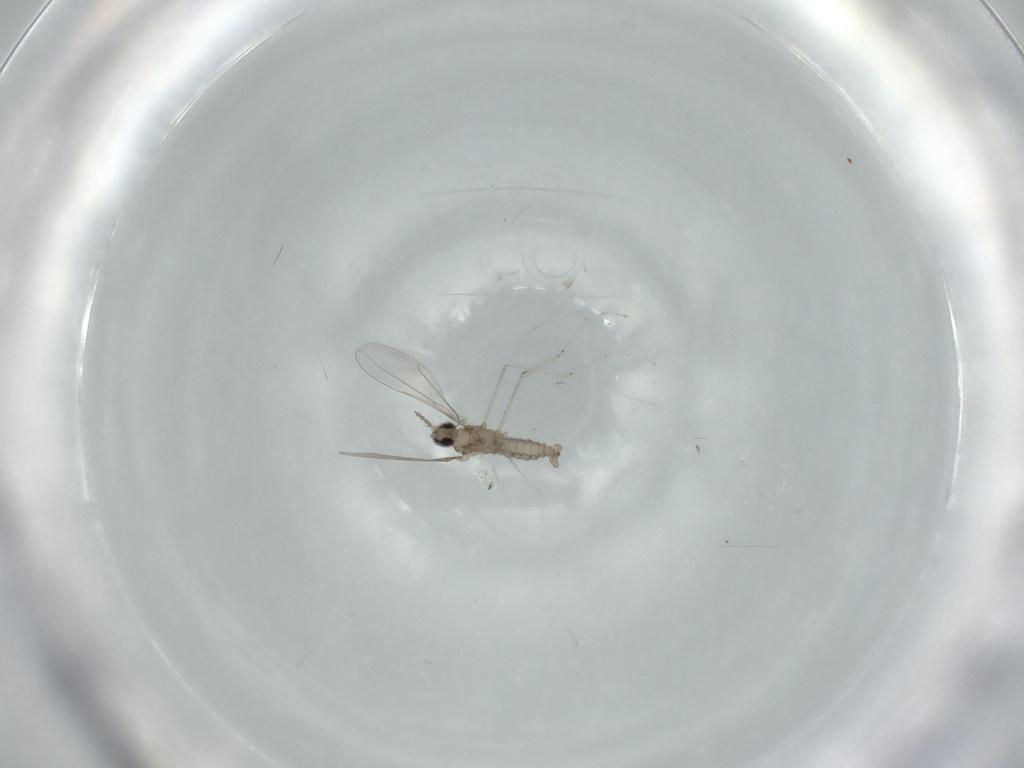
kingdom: Animalia
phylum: Arthropoda
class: Insecta
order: Diptera
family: Cecidomyiidae
